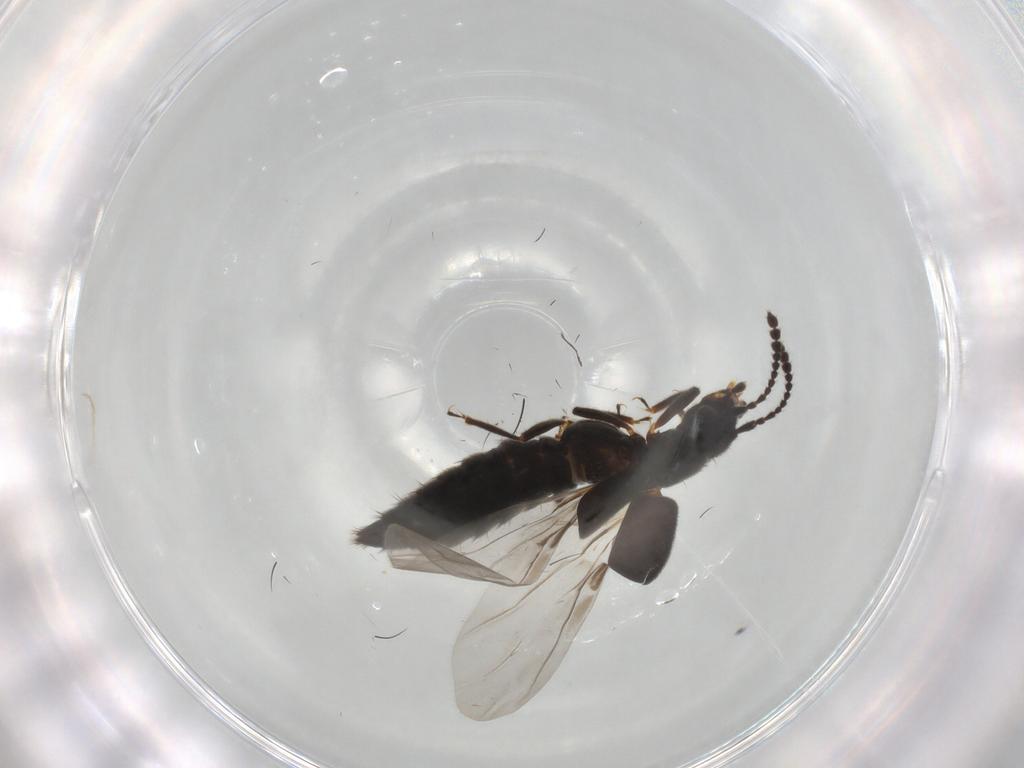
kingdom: Animalia
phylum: Arthropoda
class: Insecta
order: Coleoptera
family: Staphylinidae
